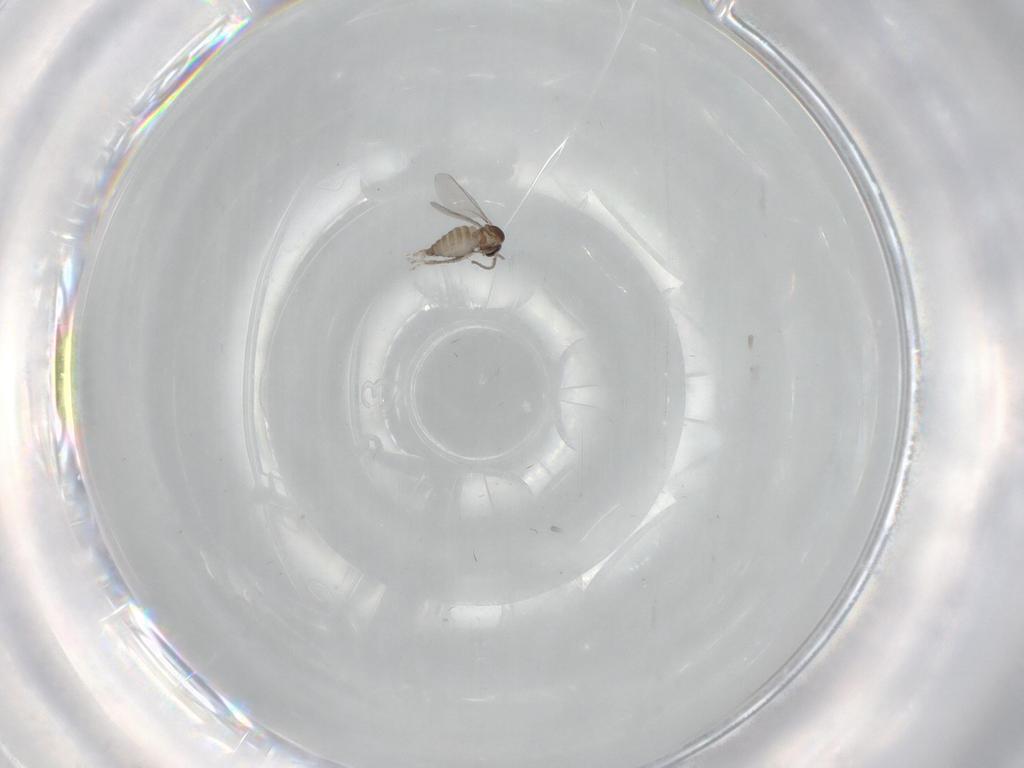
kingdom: Animalia
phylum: Arthropoda
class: Insecta
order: Diptera
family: Cecidomyiidae
